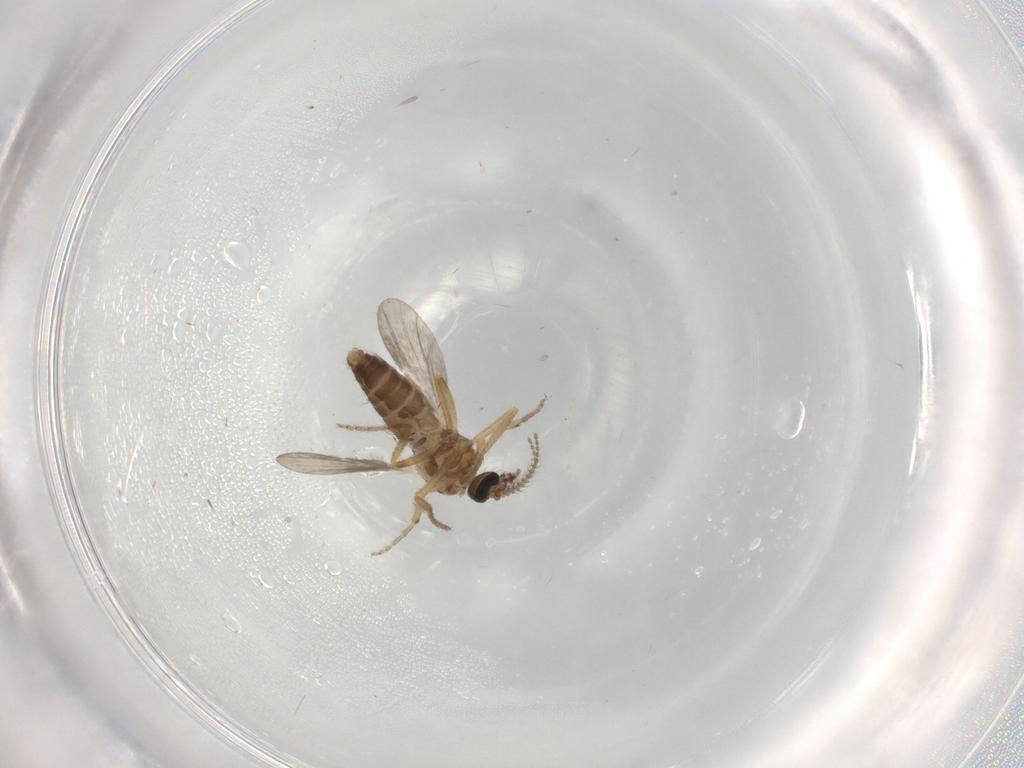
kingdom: Animalia
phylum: Arthropoda
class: Insecta
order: Diptera
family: Ceratopogonidae
